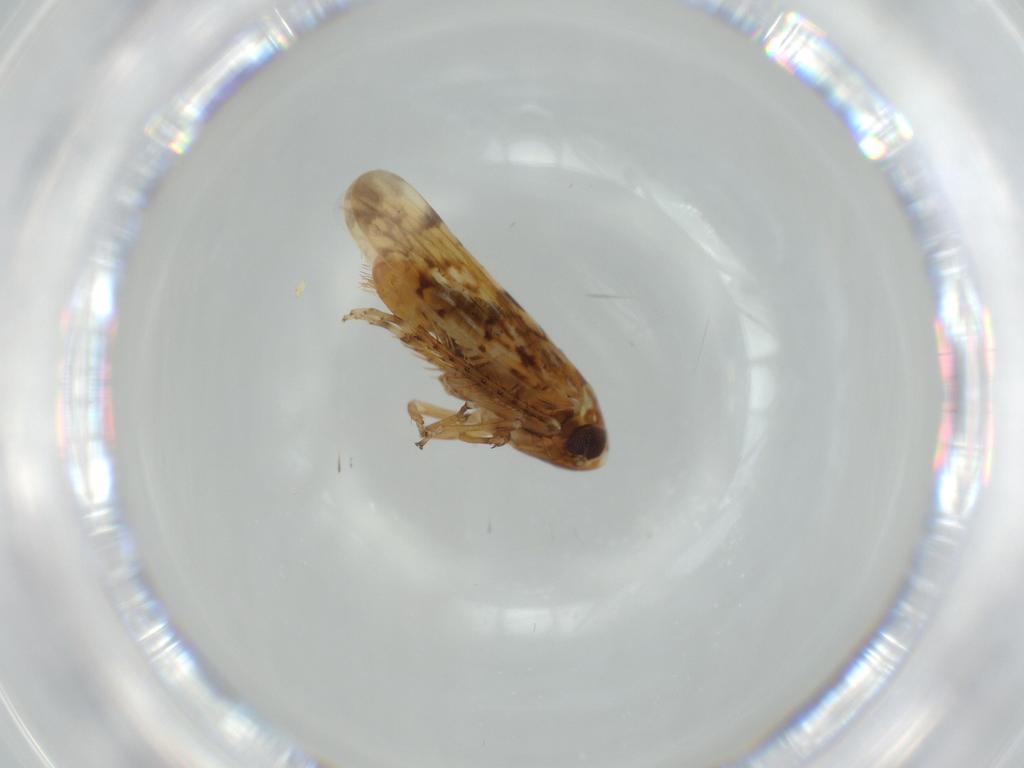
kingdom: Animalia
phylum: Arthropoda
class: Insecta
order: Hemiptera
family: Cicadellidae
